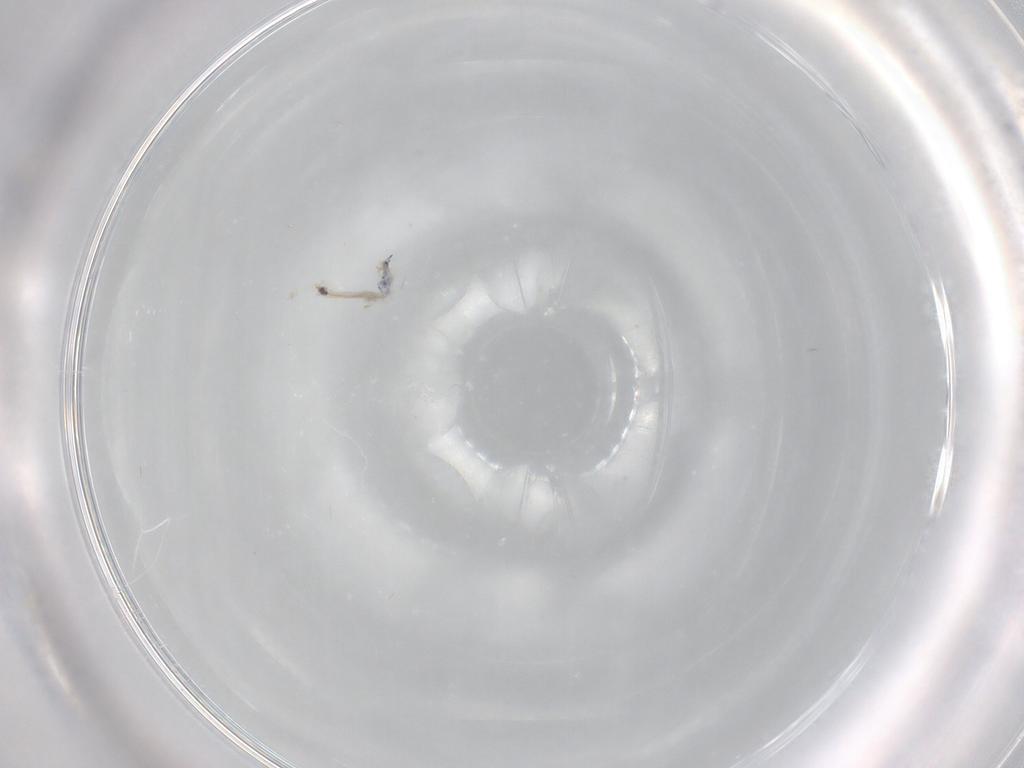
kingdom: Animalia
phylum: Arthropoda
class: Collembola
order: Entomobryomorpha
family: Entomobryidae
